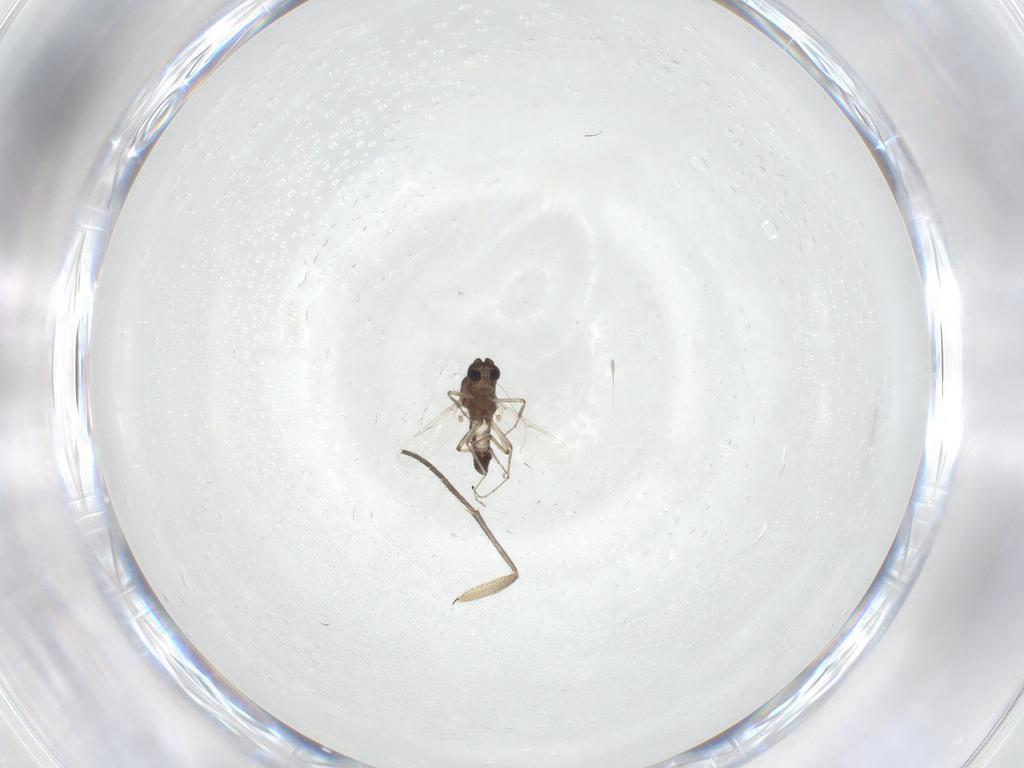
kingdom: Animalia
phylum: Arthropoda
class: Insecta
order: Diptera
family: Ceratopogonidae
